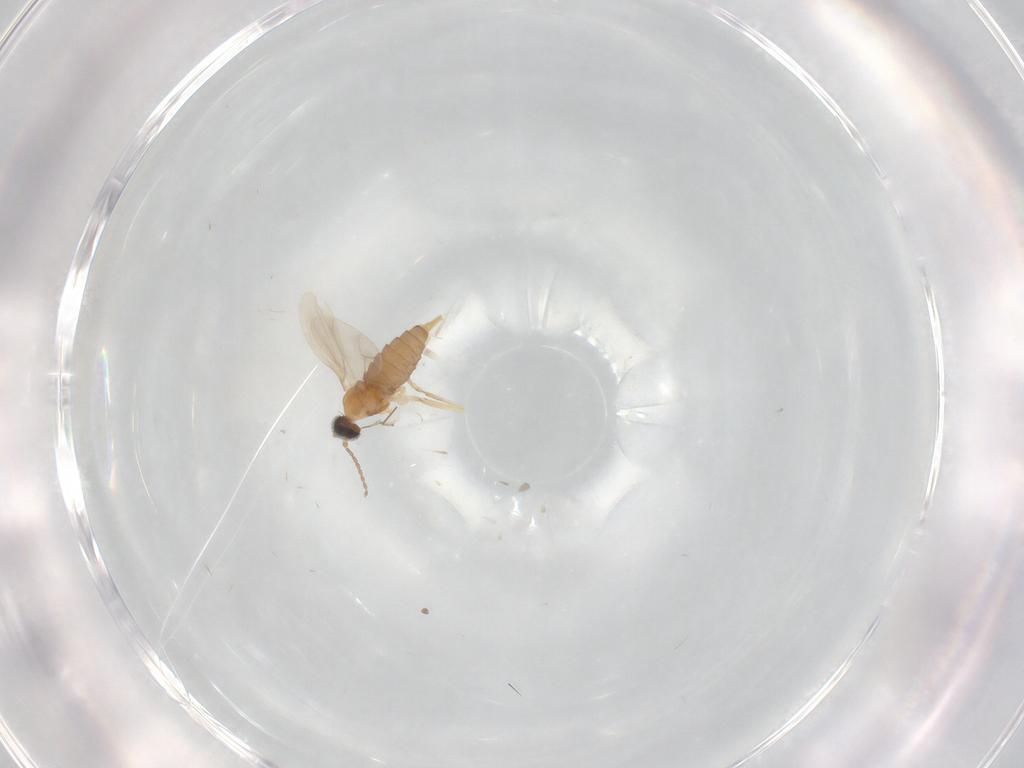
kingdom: Animalia
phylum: Arthropoda
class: Insecta
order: Diptera
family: Cecidomyiidae
